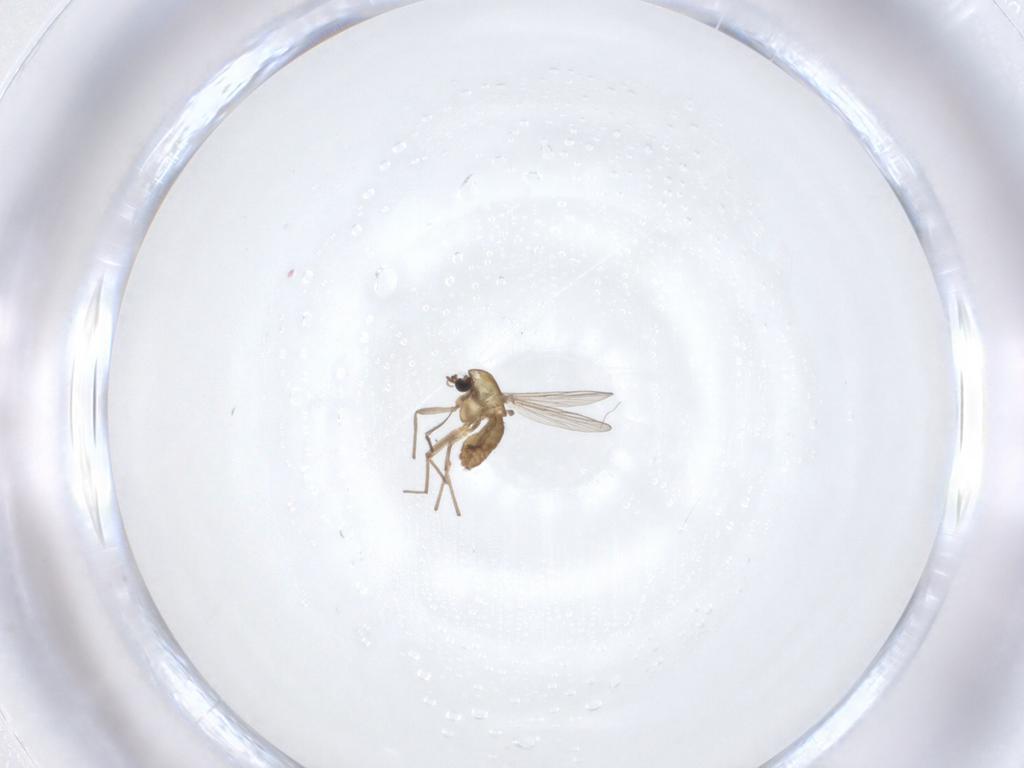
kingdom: Animalia
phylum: Arthropoda
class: Insecta
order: Diptera
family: Chironomidae
